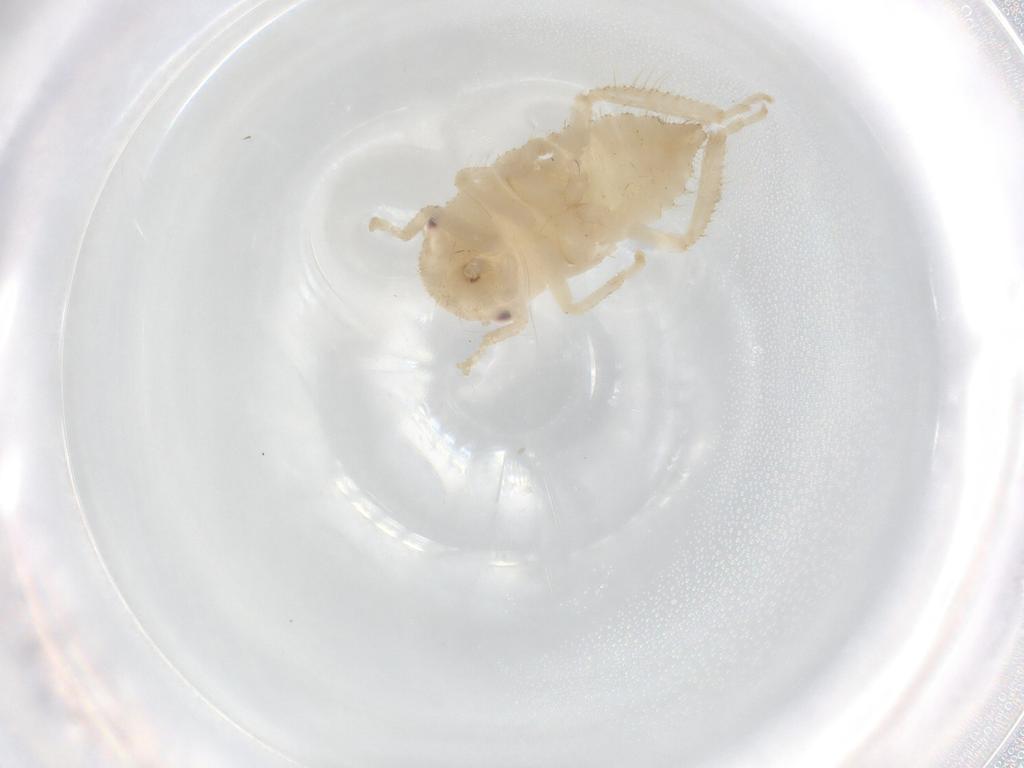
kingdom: Animalia
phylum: Arthropoda
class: Insecta
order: Hemiptera
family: Cicadellidae
